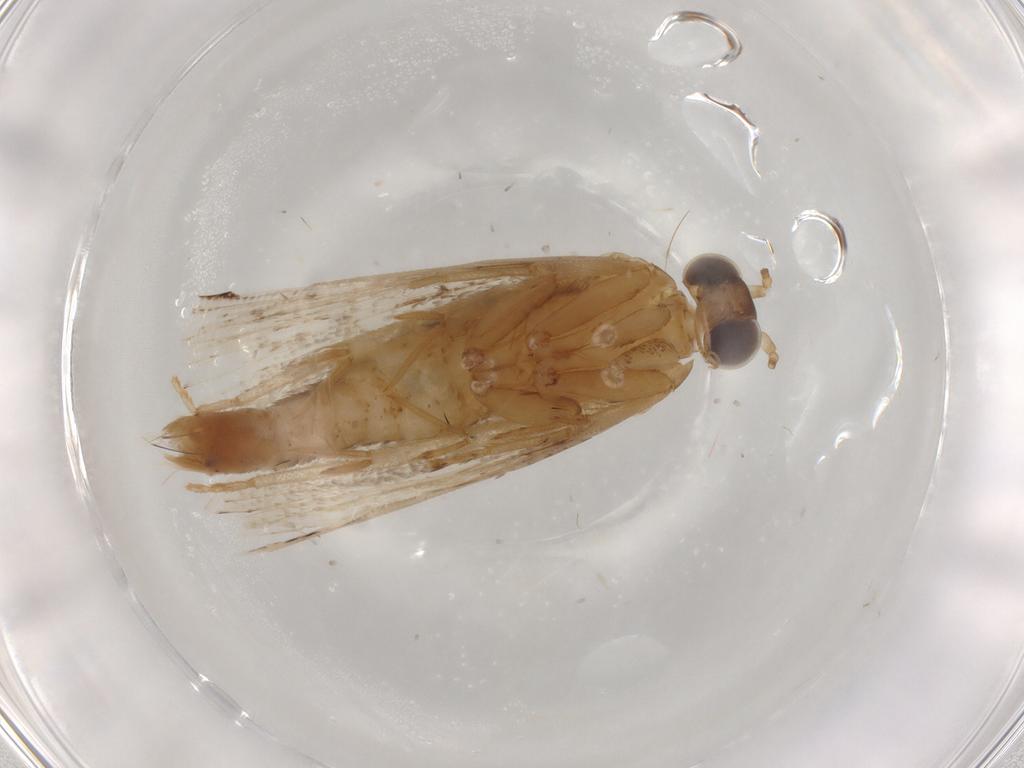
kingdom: Animalia
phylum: Arthropoda
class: Insecta
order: Lepidoptera
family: Tortricidae
